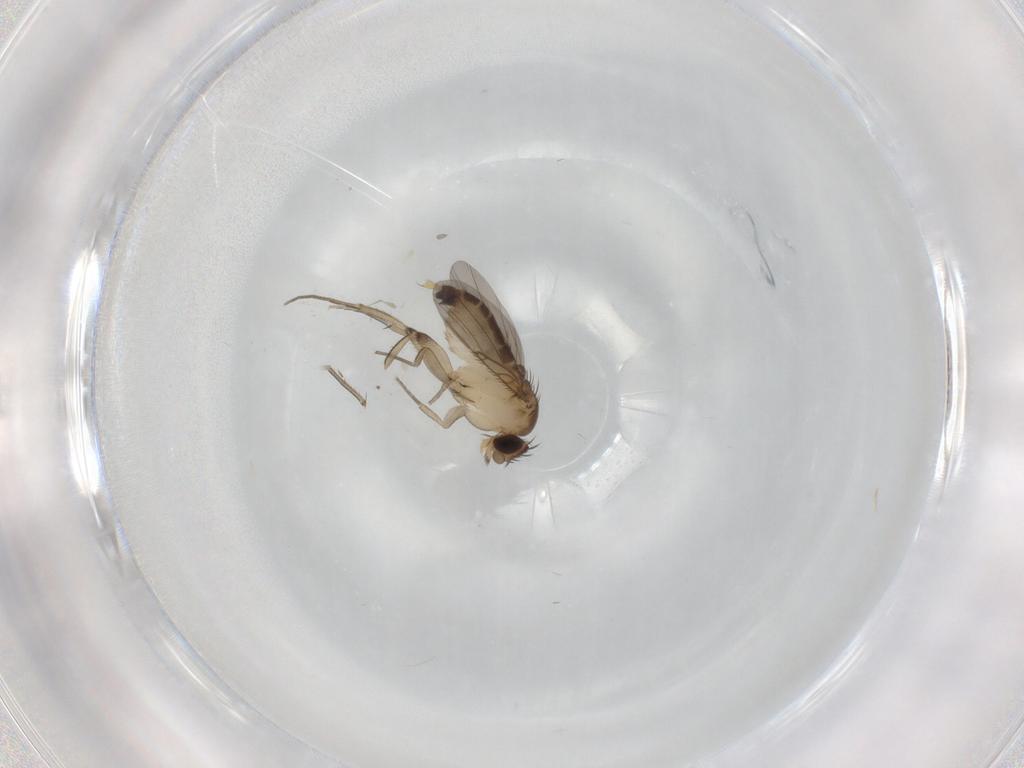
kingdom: Animalia
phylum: Arthropoda
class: Insecta
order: Diptera
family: Phoridae
